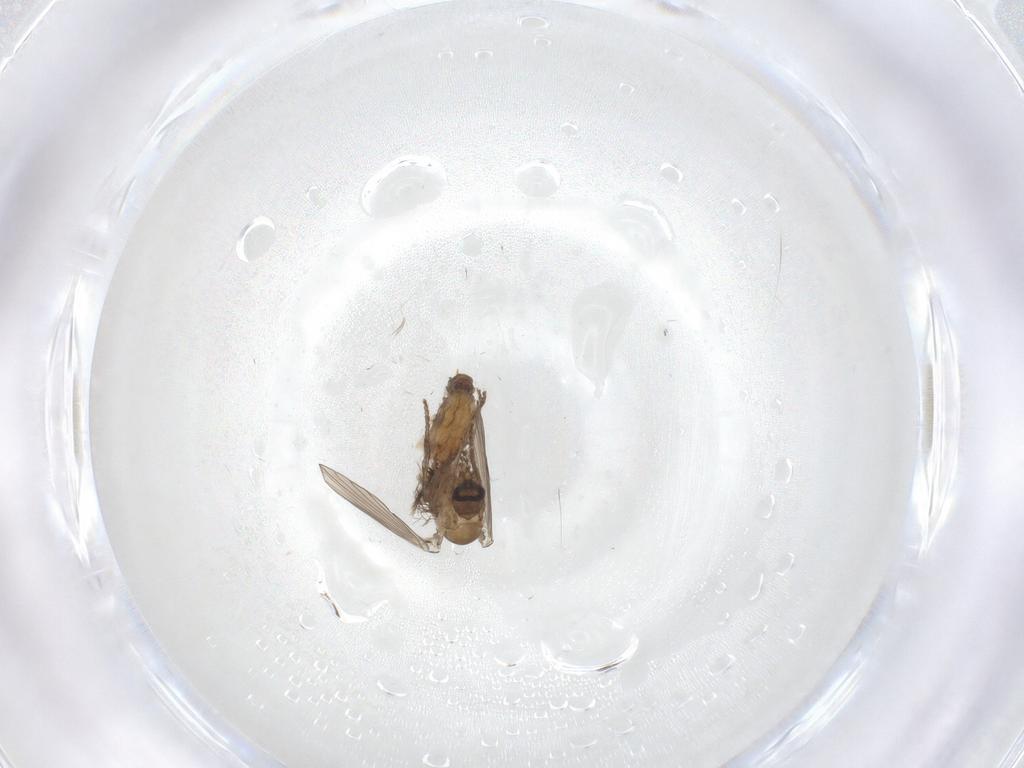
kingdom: Animalia
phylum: Arthropoda
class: Insecta
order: Diptera
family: Psychodidae
